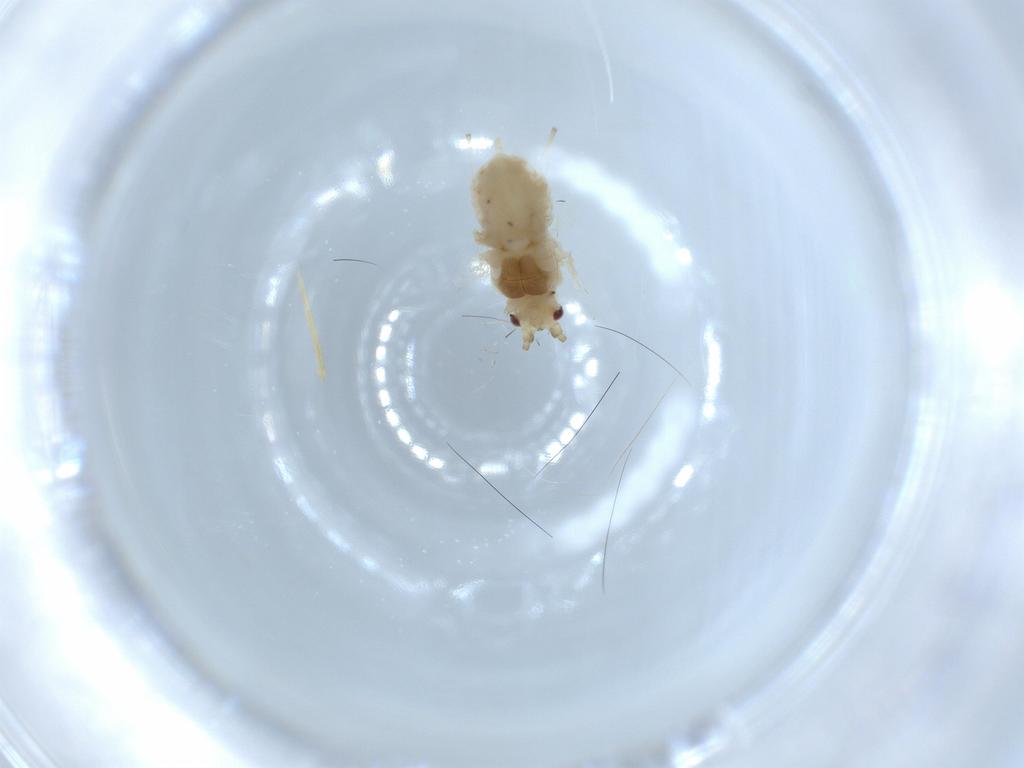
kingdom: Animalia
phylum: Arthropoda
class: Insecta
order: Hemiptera
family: Aphididae
